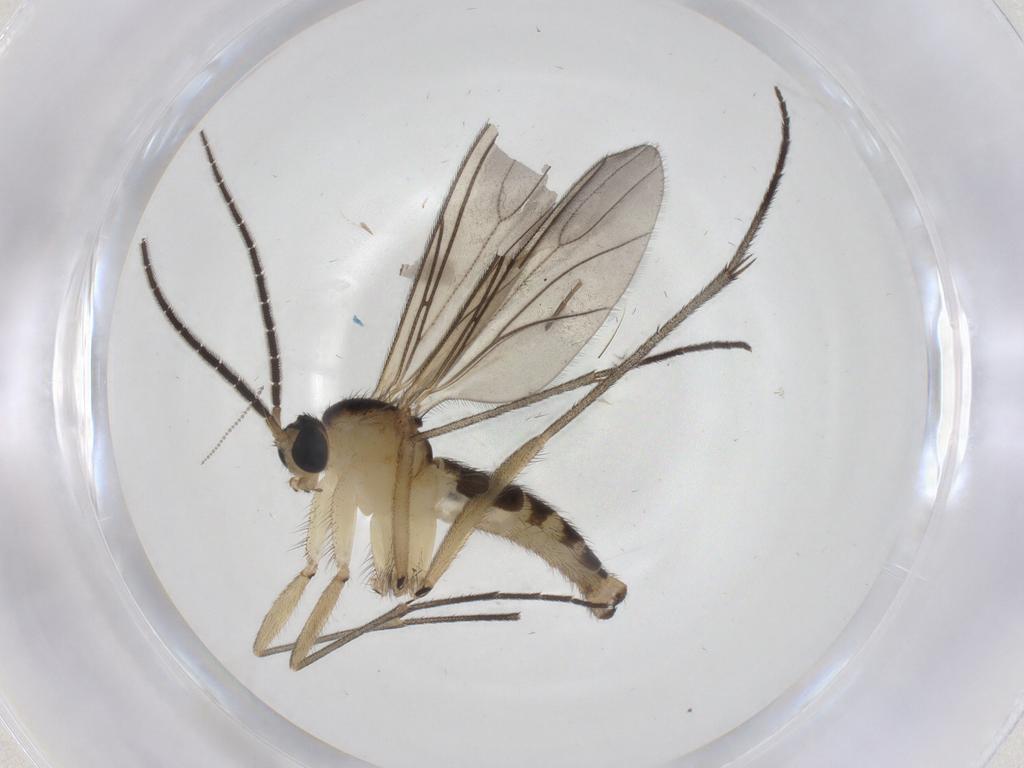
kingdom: Animalia
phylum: Arthropoda
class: Insecta
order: Diptera
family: Sciaridae
